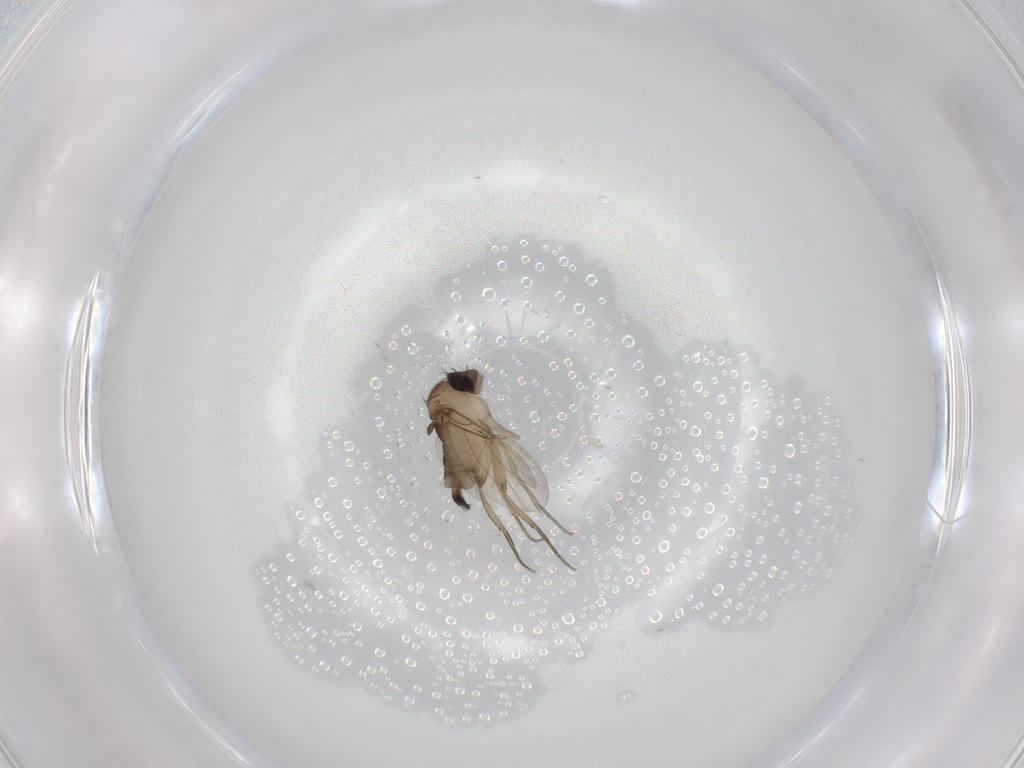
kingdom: Animalia
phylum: Arthropoda
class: Insecta
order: Diptera
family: Phoridae
